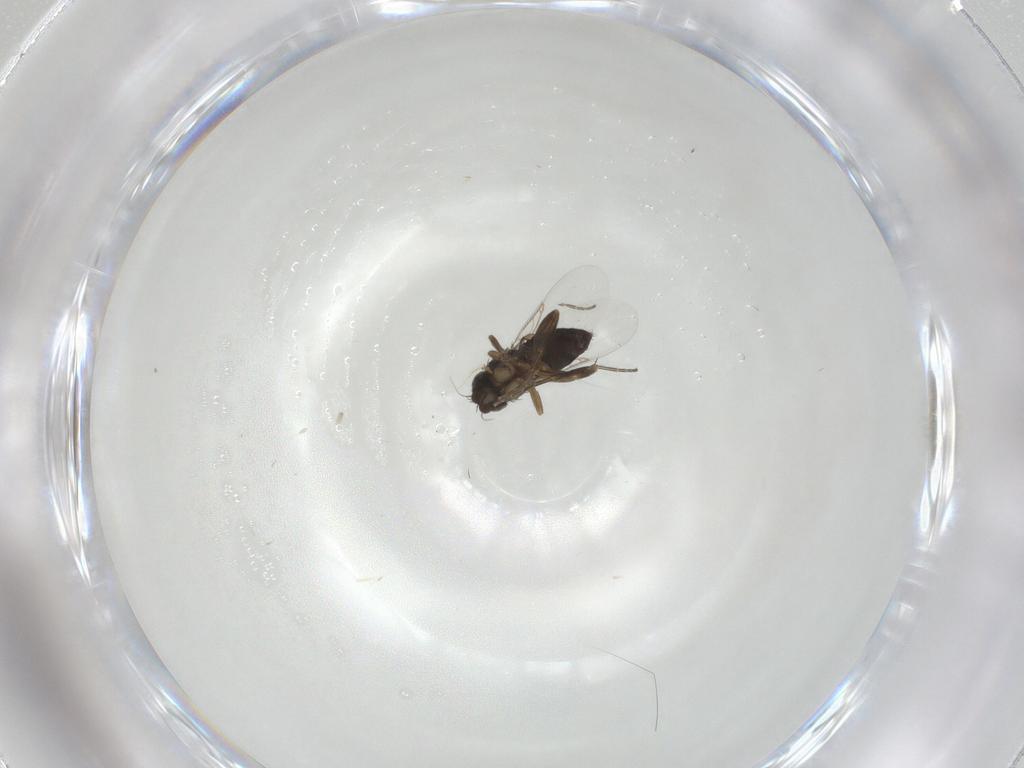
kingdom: Animalia
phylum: Arthropoda
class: Insecta
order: Diptera
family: Phoridae
